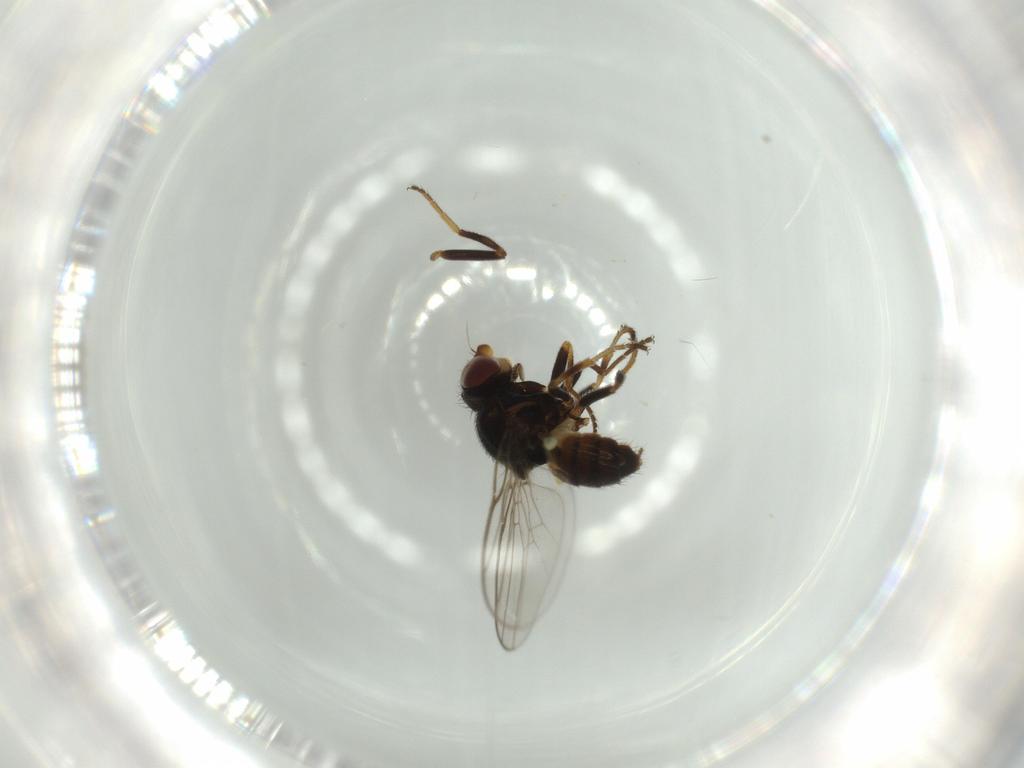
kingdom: Animalia
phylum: Arthropoda
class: Insecta
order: Diptera
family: Chloropidae
